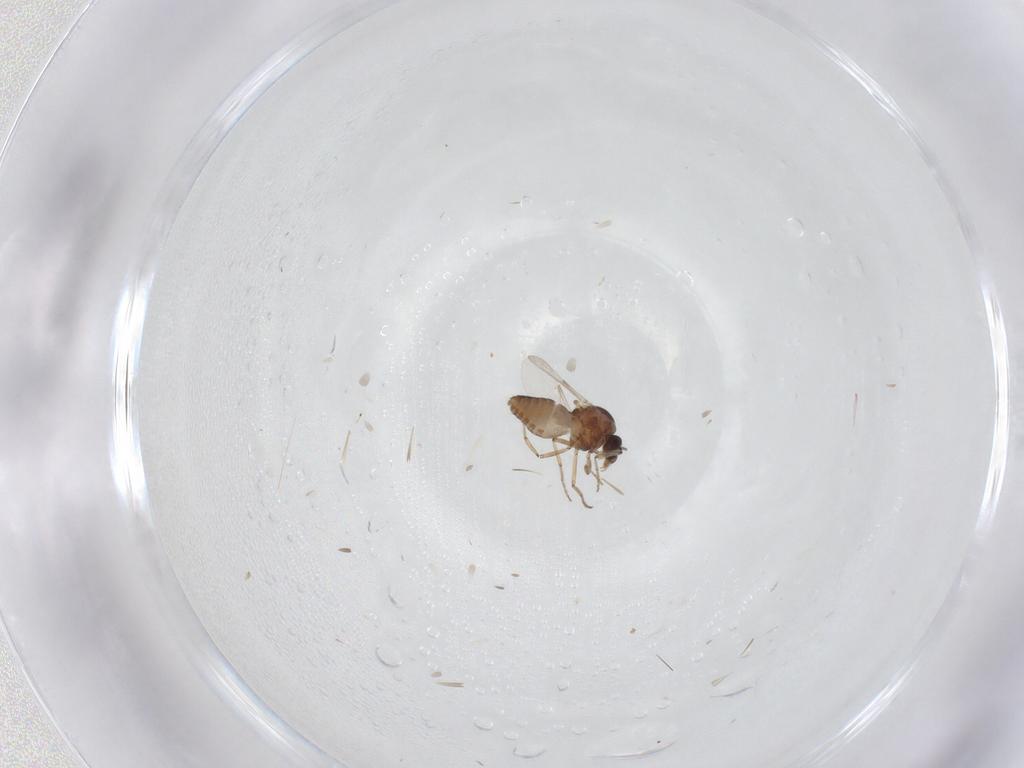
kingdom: Animalia
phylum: Arthropoda
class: Insecta
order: Diptera
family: Ceratopogonidae
